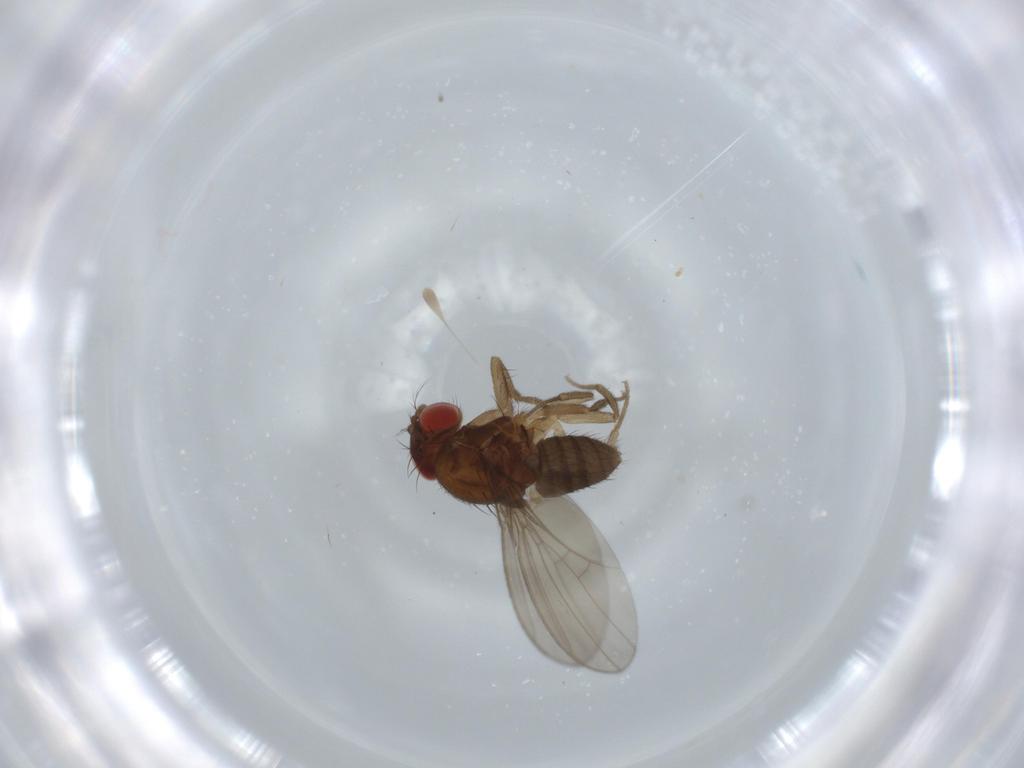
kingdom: Animalia
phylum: Arthropoda
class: Insecta
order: Diptera
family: Drosophilidae
